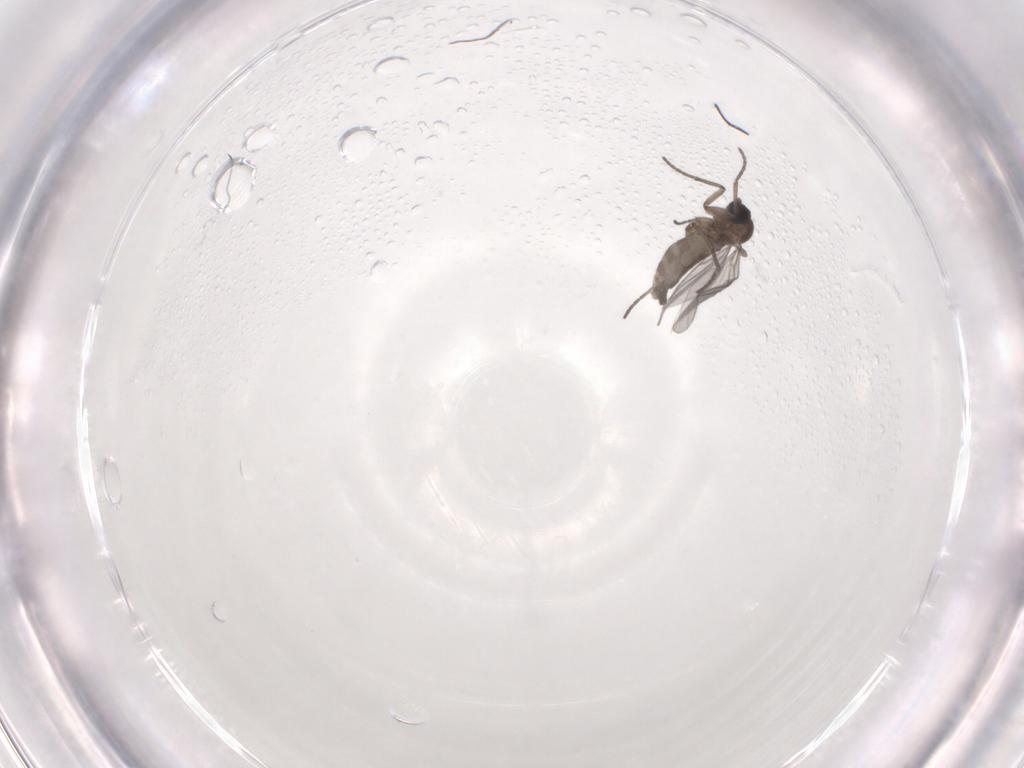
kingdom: Animalia
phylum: Arthropoda
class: Insecta
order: Diptera
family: Sciaridae
